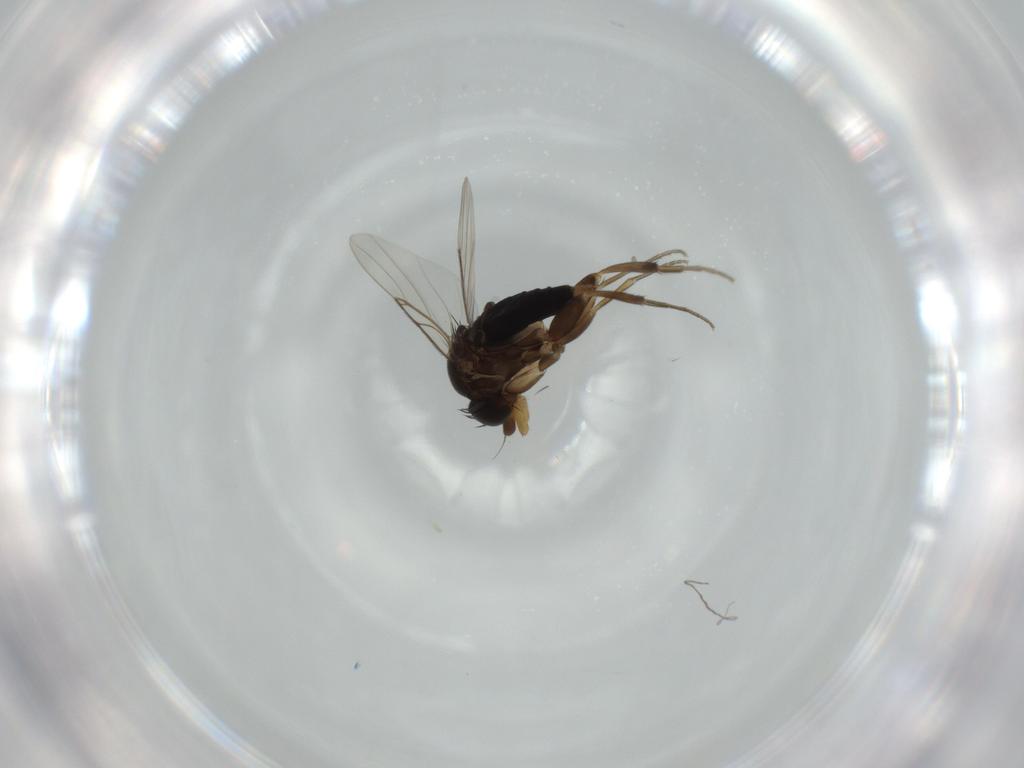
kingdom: Animalia
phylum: Arthropoda
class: Insecta
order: Diptera
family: Phoridae
